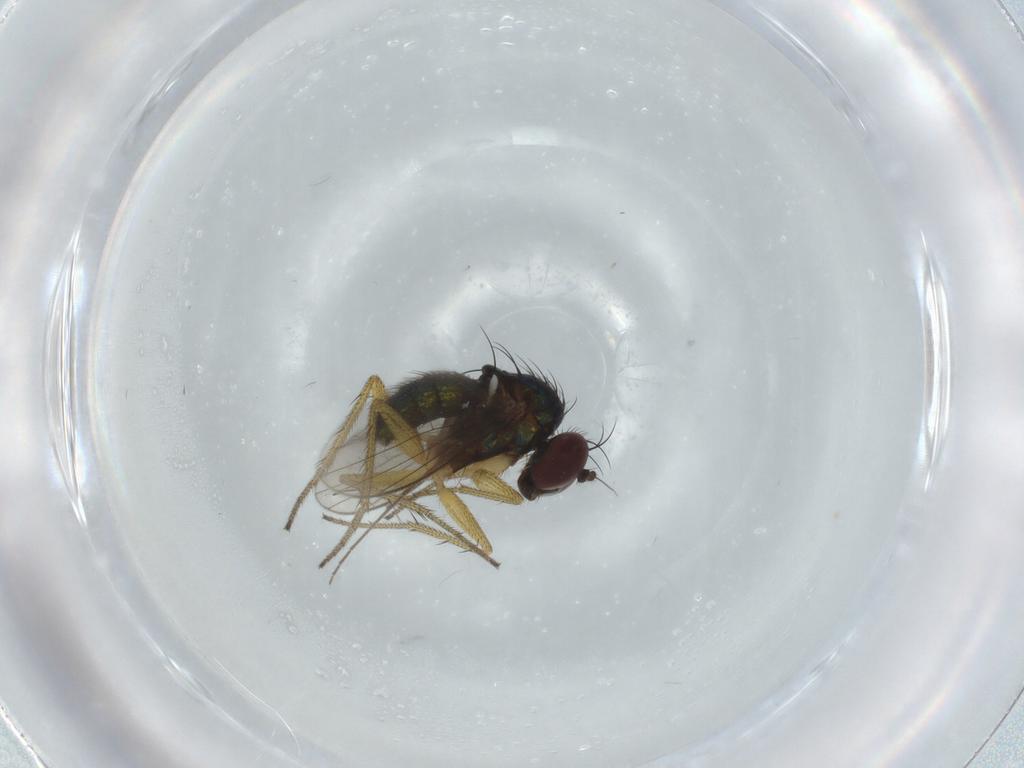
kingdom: Animalia
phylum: Arthropoda
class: Insecta
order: Diptera
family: Dolichopodidae
